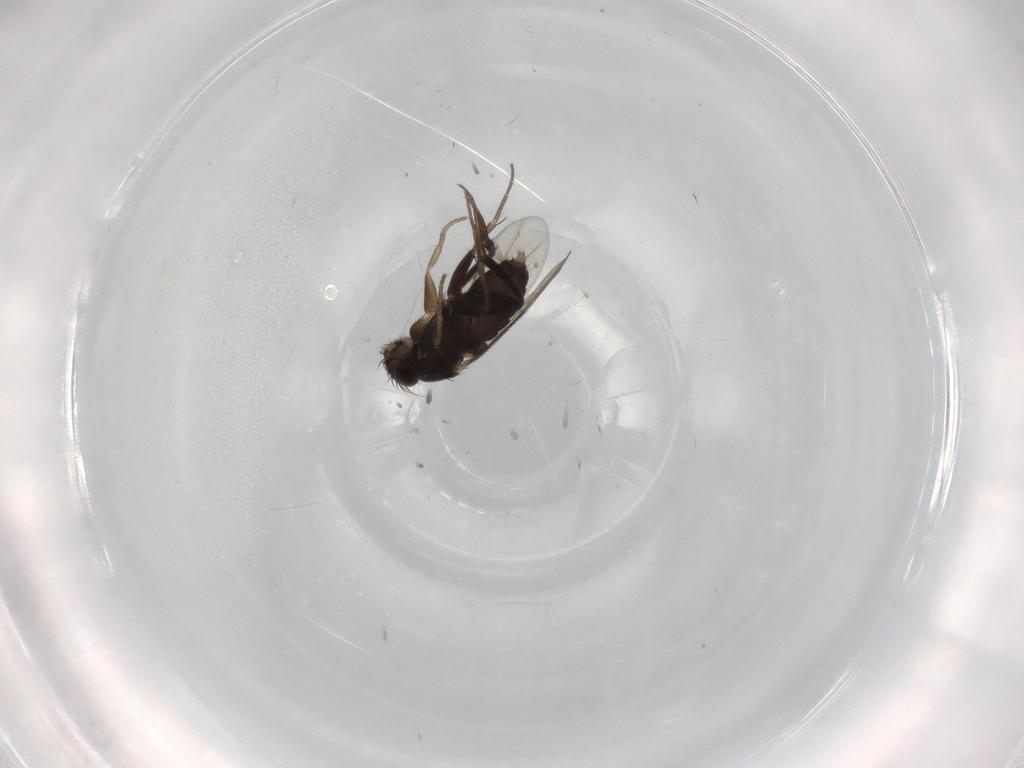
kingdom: Animalia
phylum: Arthropoda
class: Insecta
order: Diptera
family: Phoridae
